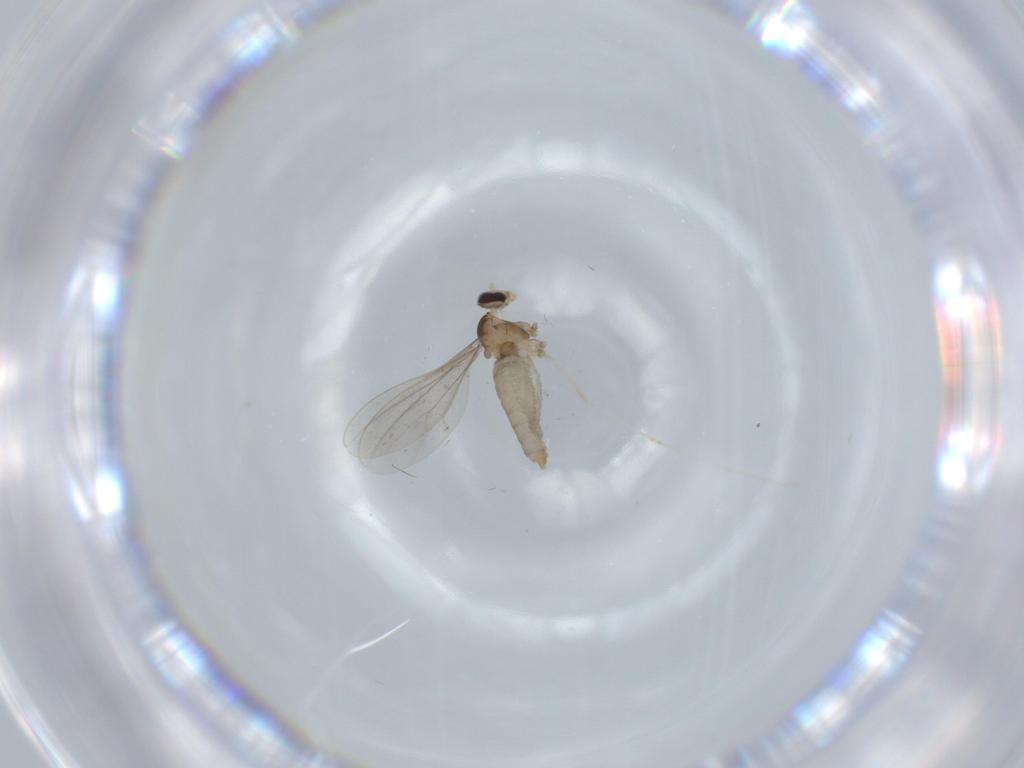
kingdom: Animalia
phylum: Arthropoda
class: Insecta
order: Diptera
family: Cecidomyiidae
